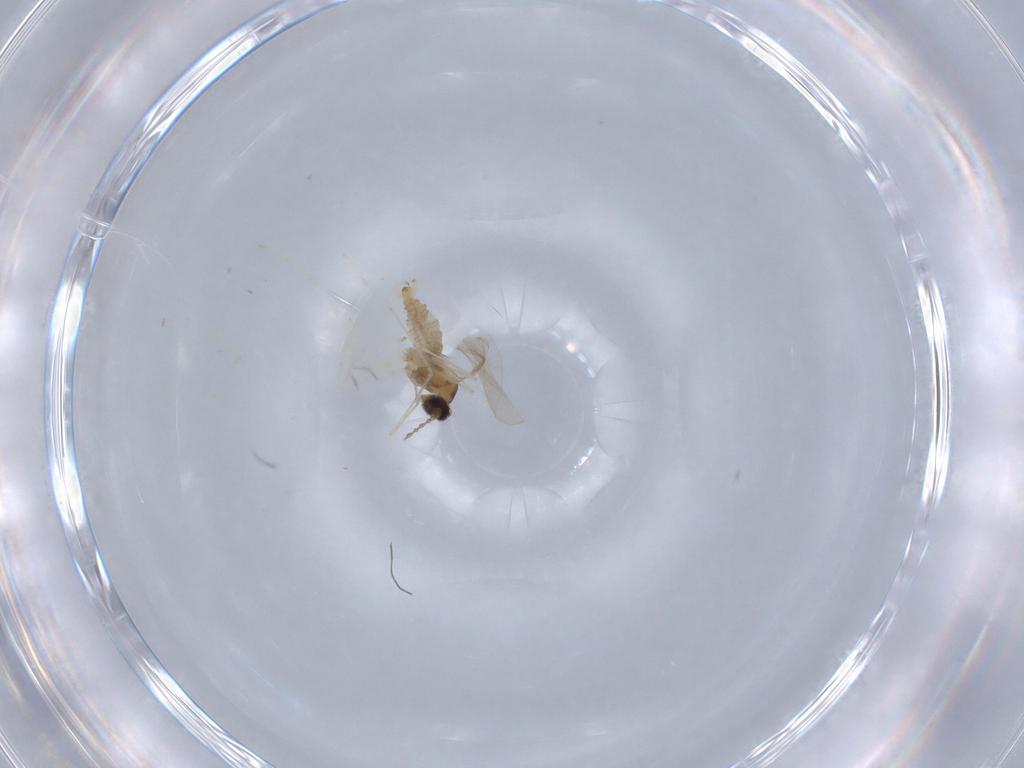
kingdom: Animalia
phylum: Arthropoda
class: Insecta
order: Diptera
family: Cecidomyiidae
